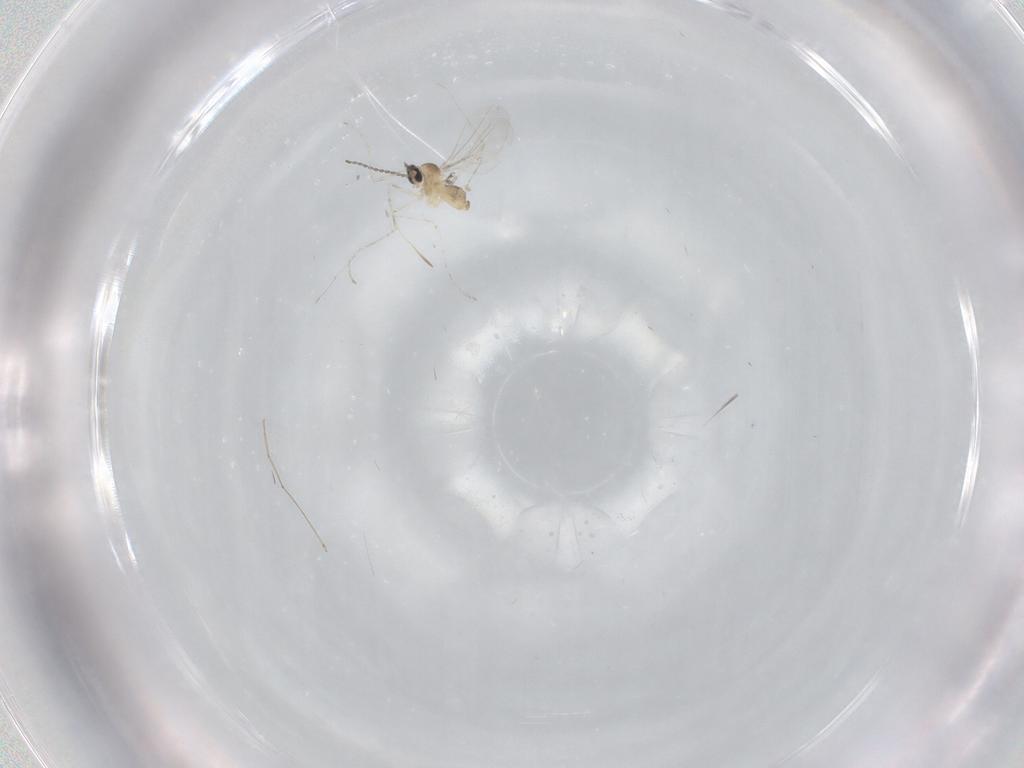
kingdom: Animalia
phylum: Arthropoda
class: Insecta
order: Diptera
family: Cecidomyiidae
